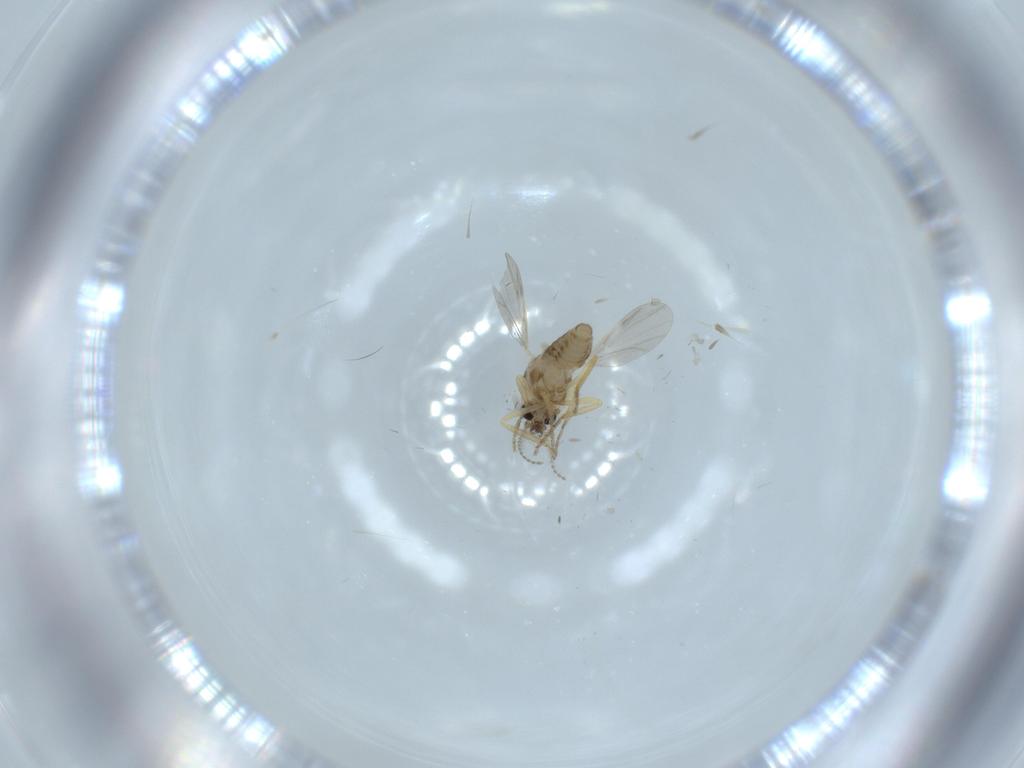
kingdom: Animalia
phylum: Arthropoda
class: Insecta
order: Diptera
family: Ceratopogonidae
